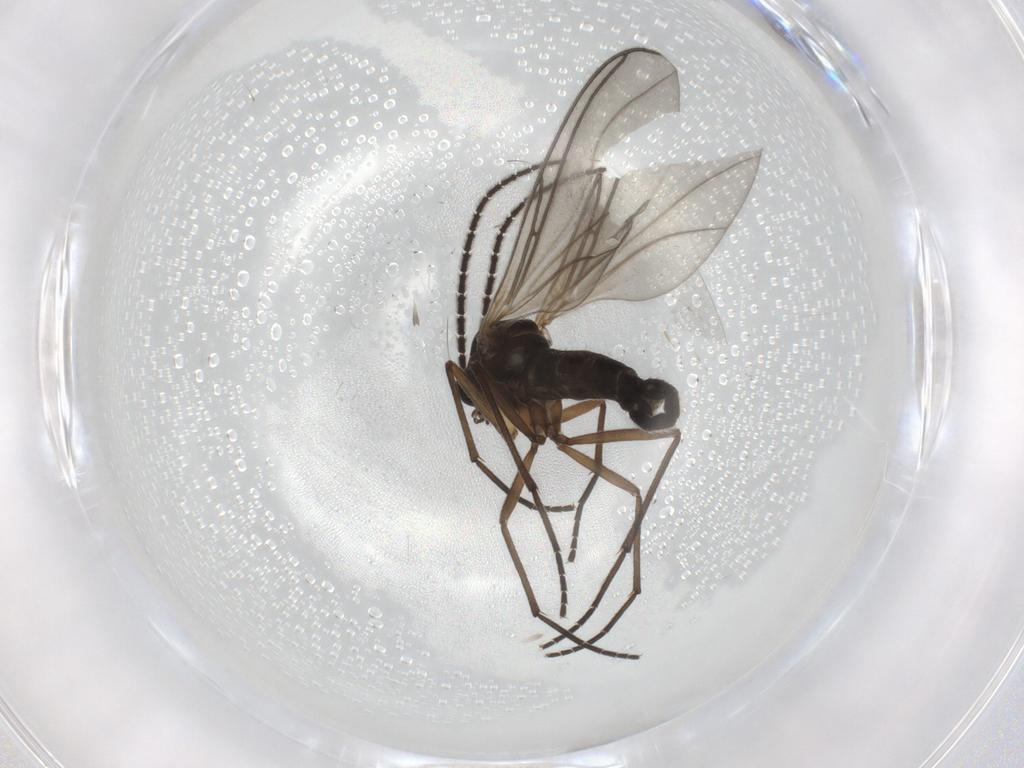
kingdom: Animalia
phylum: Arthropoda
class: Insecta
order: Diptera
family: Sciaridae
